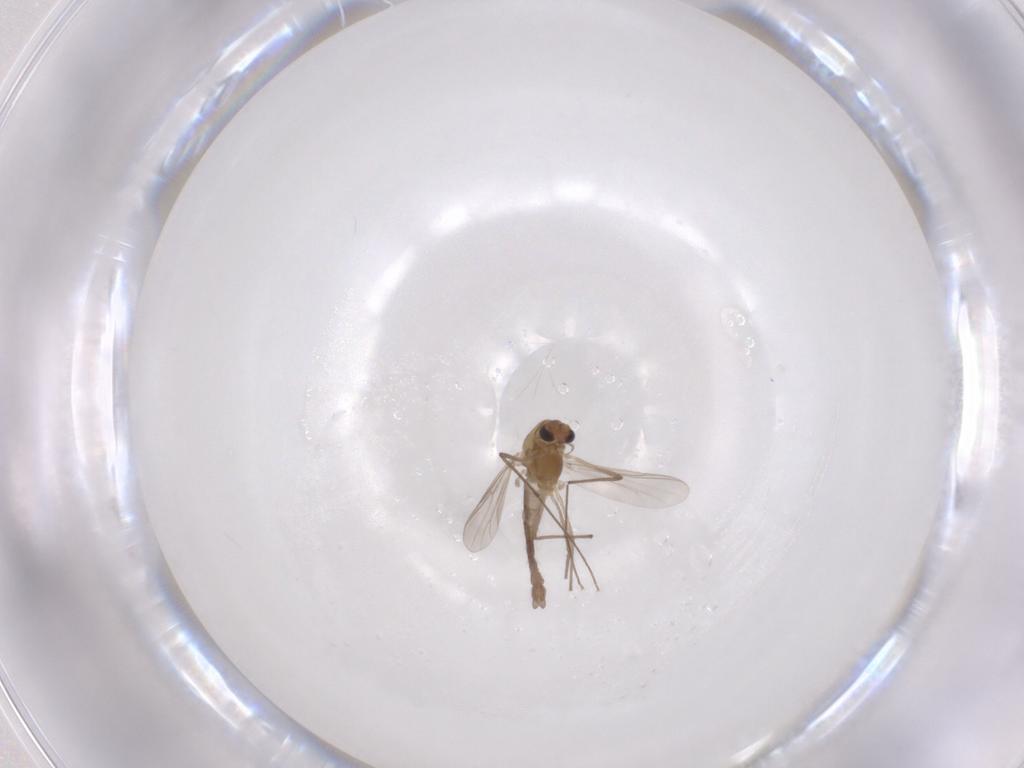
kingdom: Animalia
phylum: Arthropoda
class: Insecta
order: Diptera
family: Chironomidae
